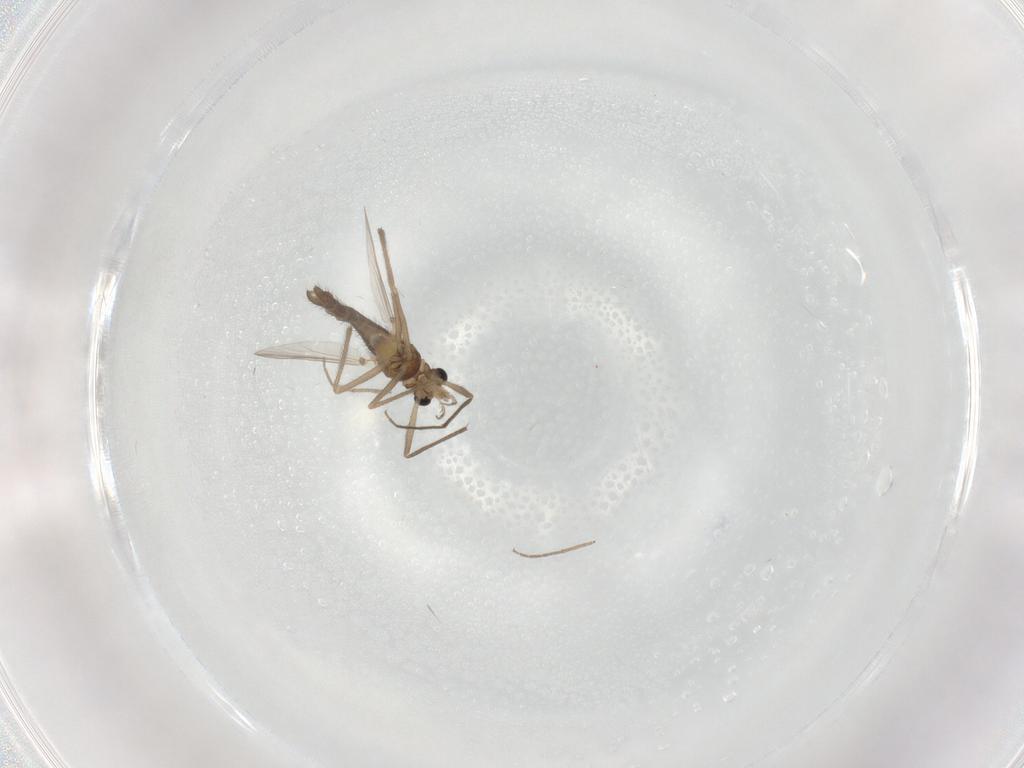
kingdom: Animalia
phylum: Arthropoda
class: Insecta
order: Diptera
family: Chironomidae
